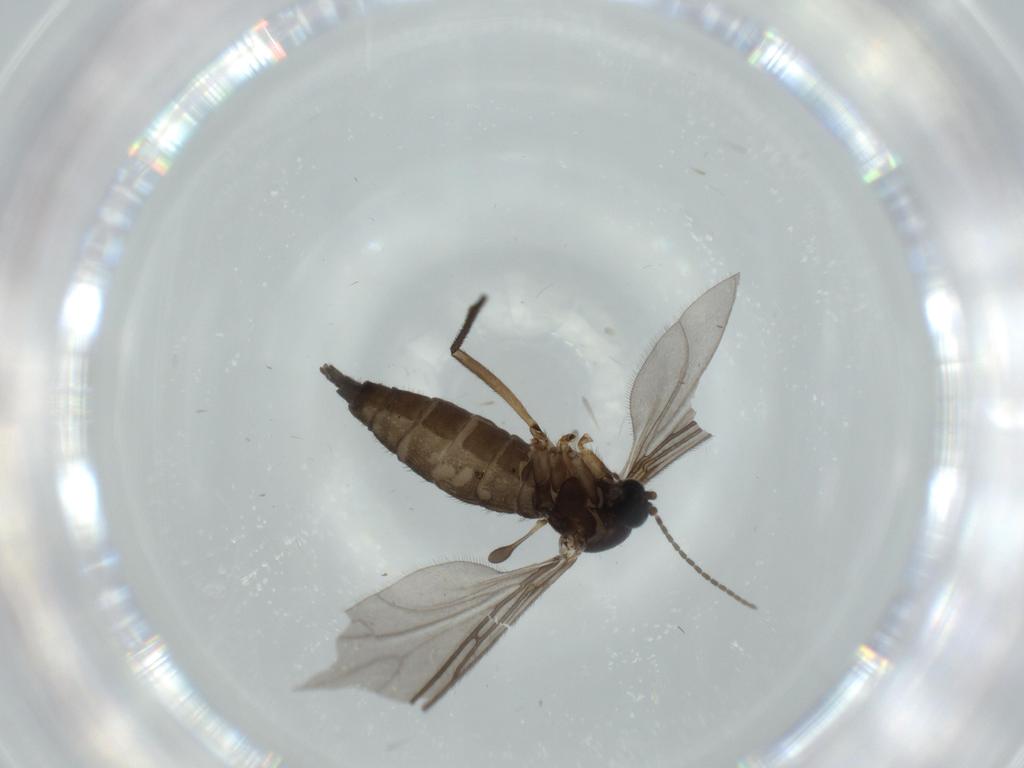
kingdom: Animalia
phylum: Arthropoda
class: Insecta
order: Diptera
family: Sciaridae
